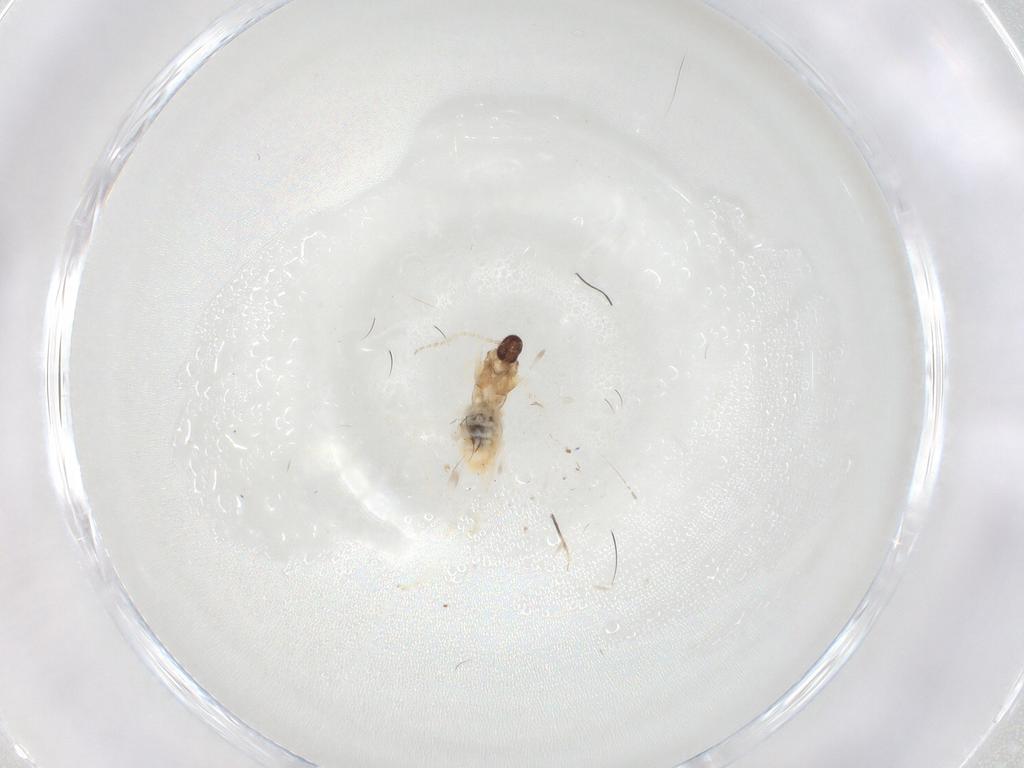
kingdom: Animalia
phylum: Arthropoda
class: Insecta
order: Diptera
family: Cecidomyiidae
